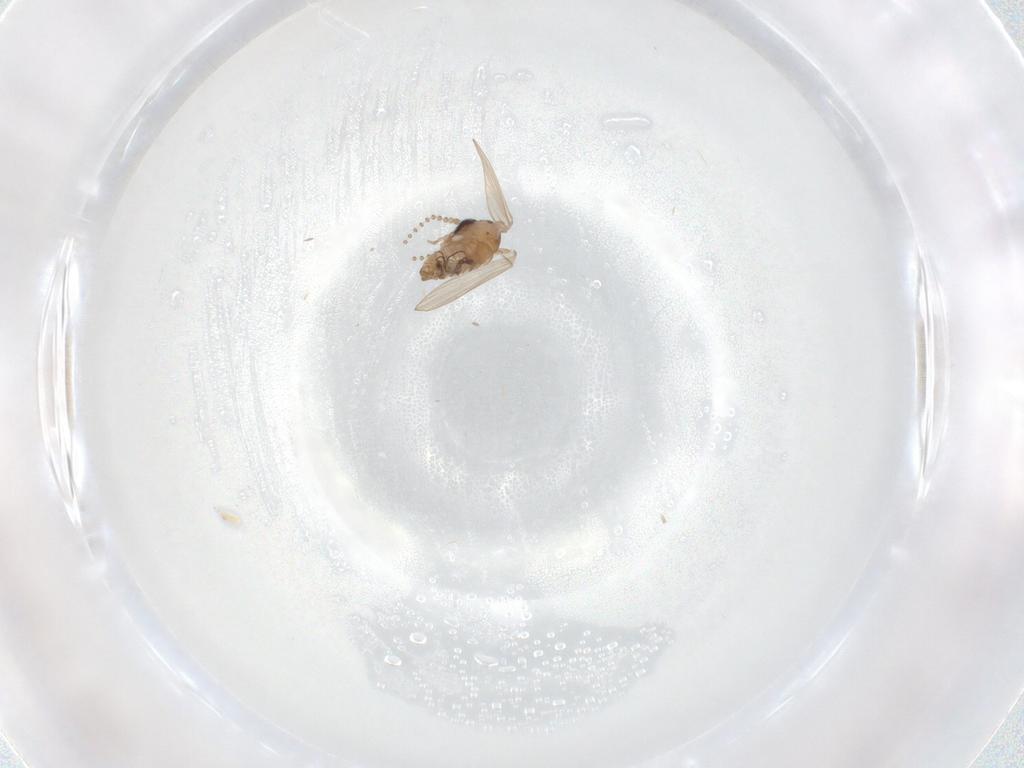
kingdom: Animalia
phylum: Arthropoda
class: Insecta
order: Diptera
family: Psychodidae
